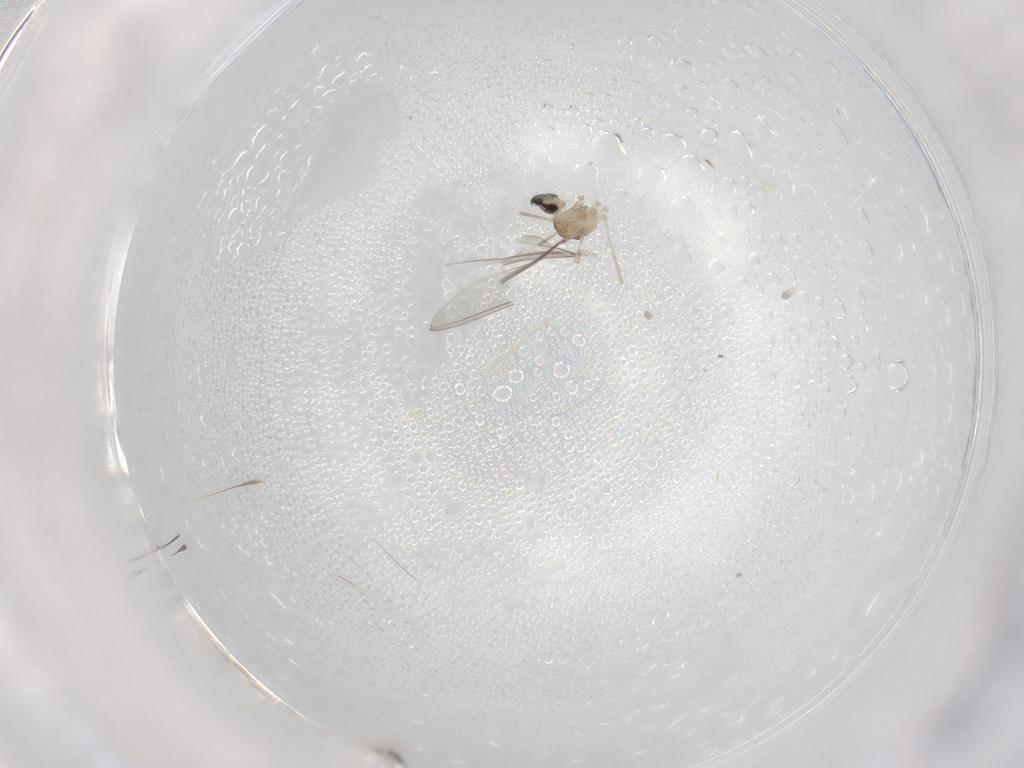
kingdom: Animalia
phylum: Arthropoda
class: Insecta
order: Diptera
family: Cecidomyiidae
